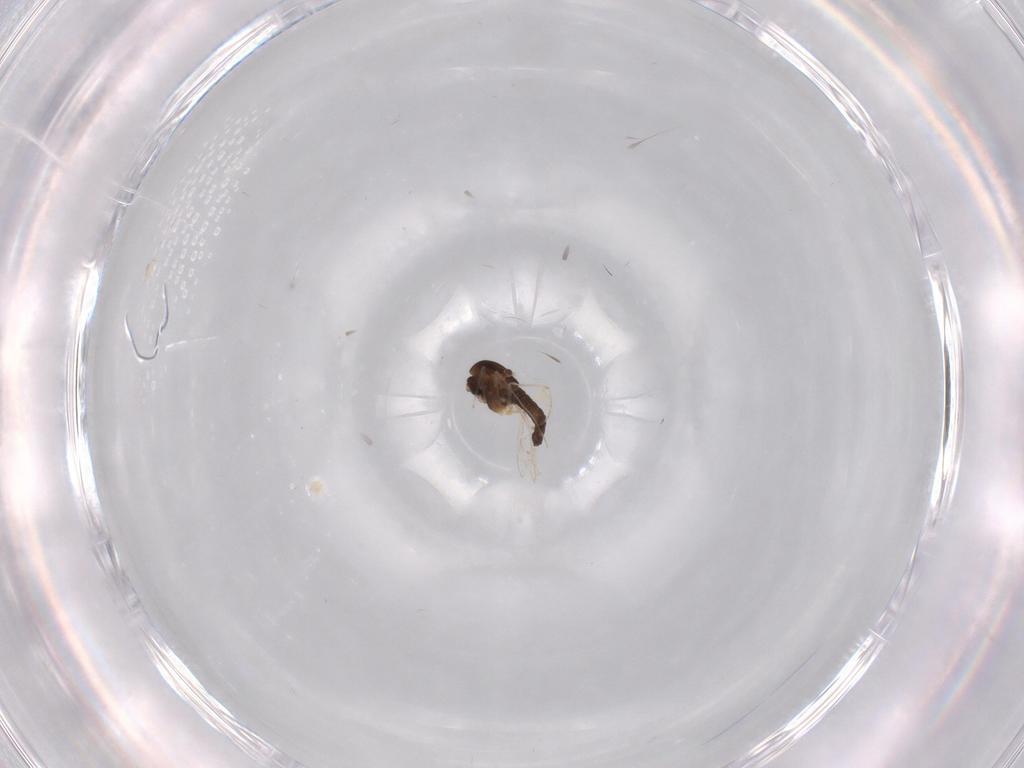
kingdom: Animalia
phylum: Arthropoda
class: Insecta
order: Diptera
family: Chironomidae
